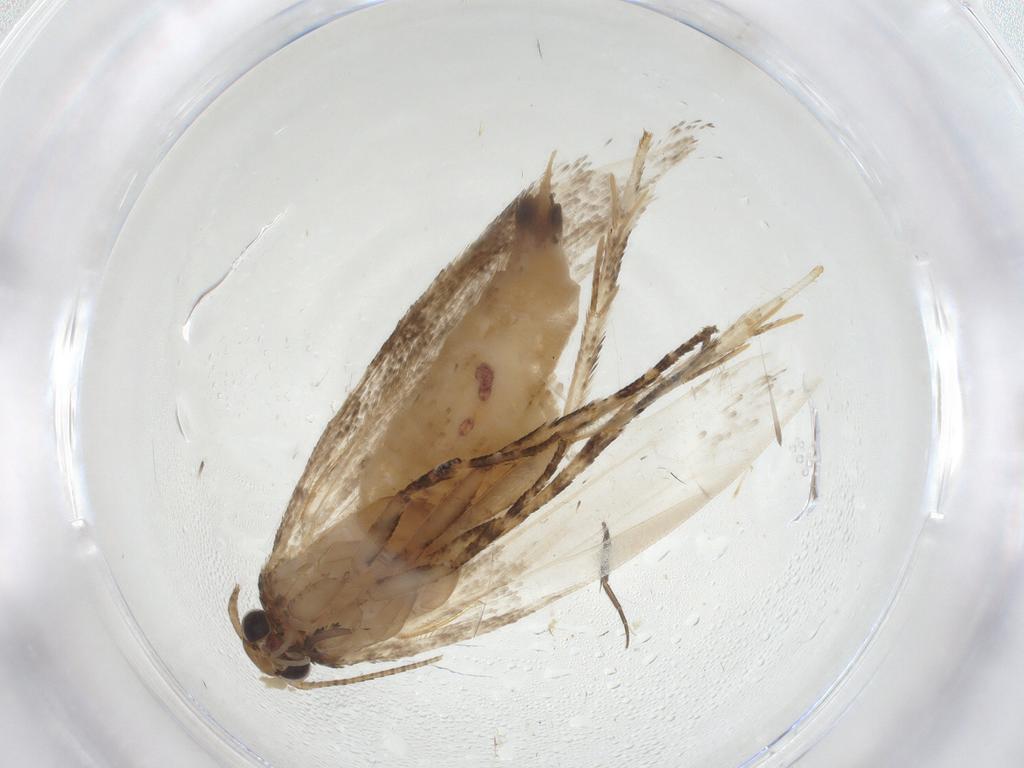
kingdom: Animalia
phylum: Arthropoda
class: Insecta
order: Lepidoptera
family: Gelechiidae
